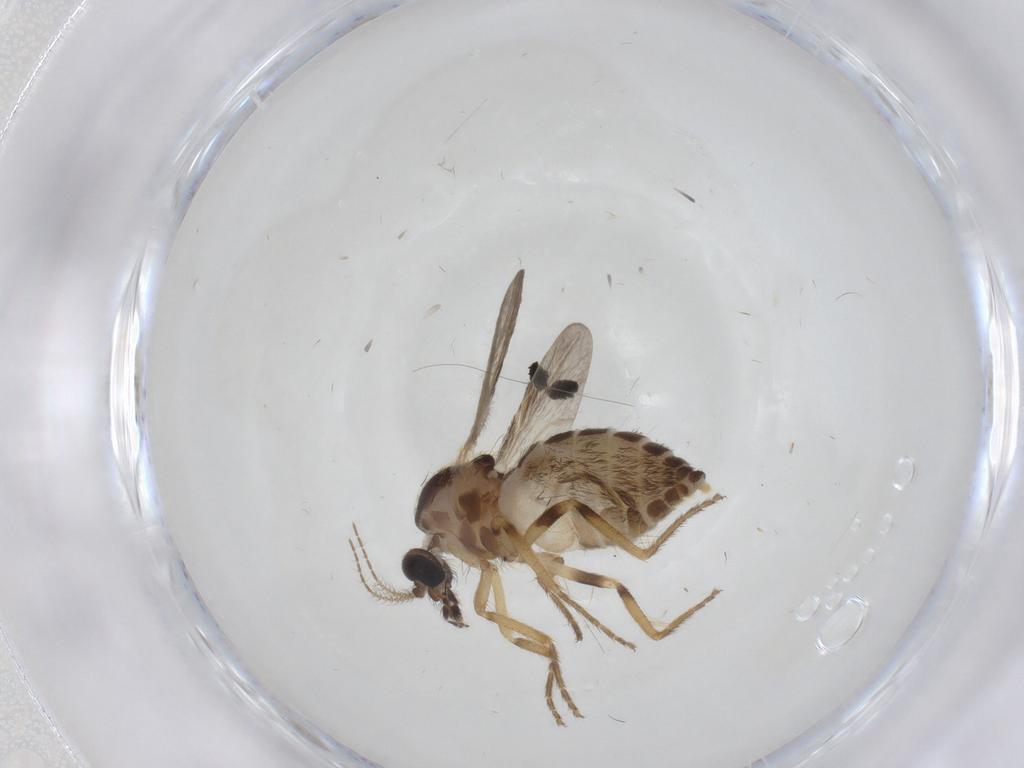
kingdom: Animalia
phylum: Arthropoda
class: Insecta
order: Diptera
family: Ceratopogonidae
